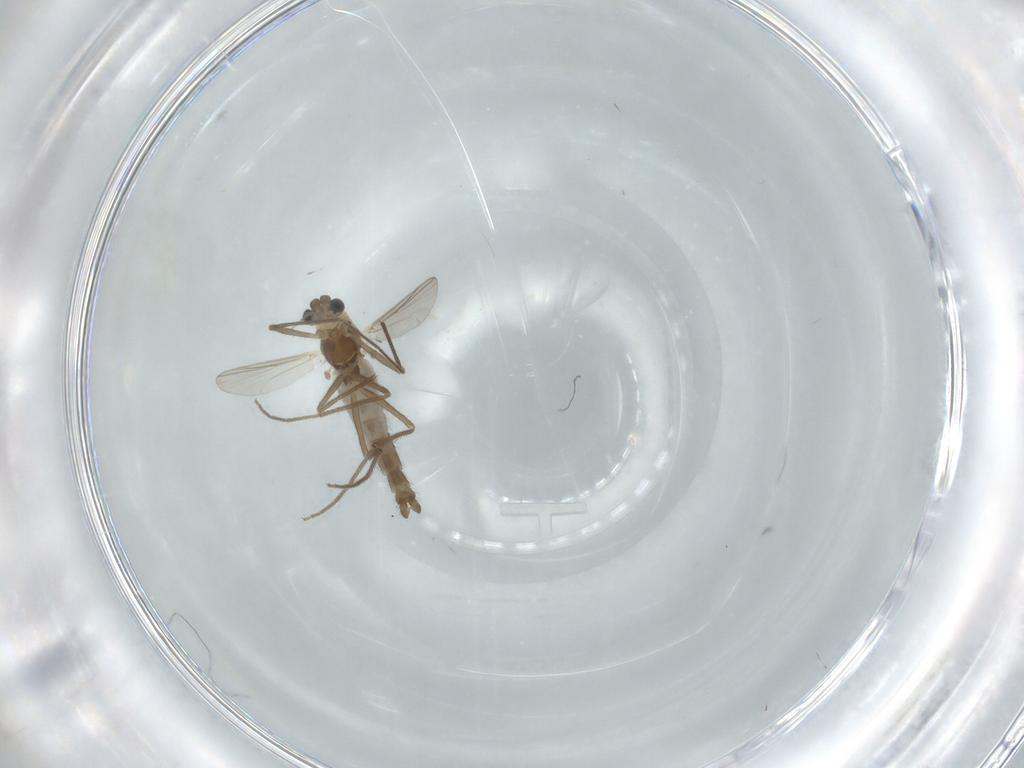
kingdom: Animalia
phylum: Arthropoda
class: Insecta
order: Diptera
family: Chironomidae
